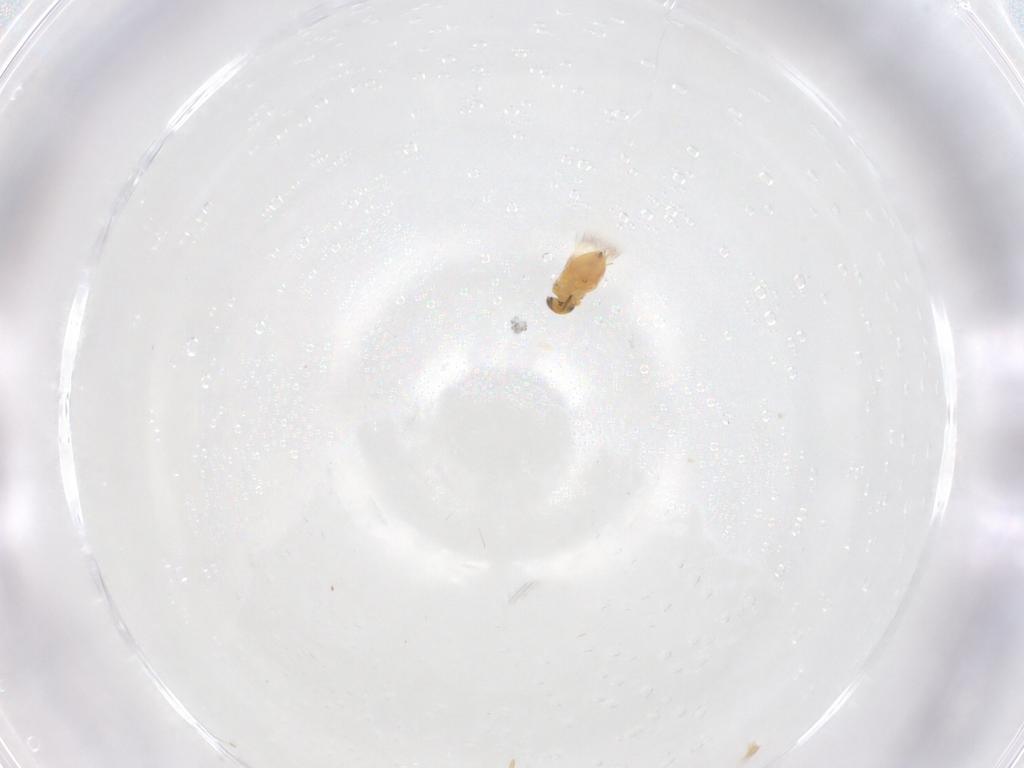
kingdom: Animalia
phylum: Arthropoda
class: Insecta
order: Hymenoptera
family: Signiphoridae
